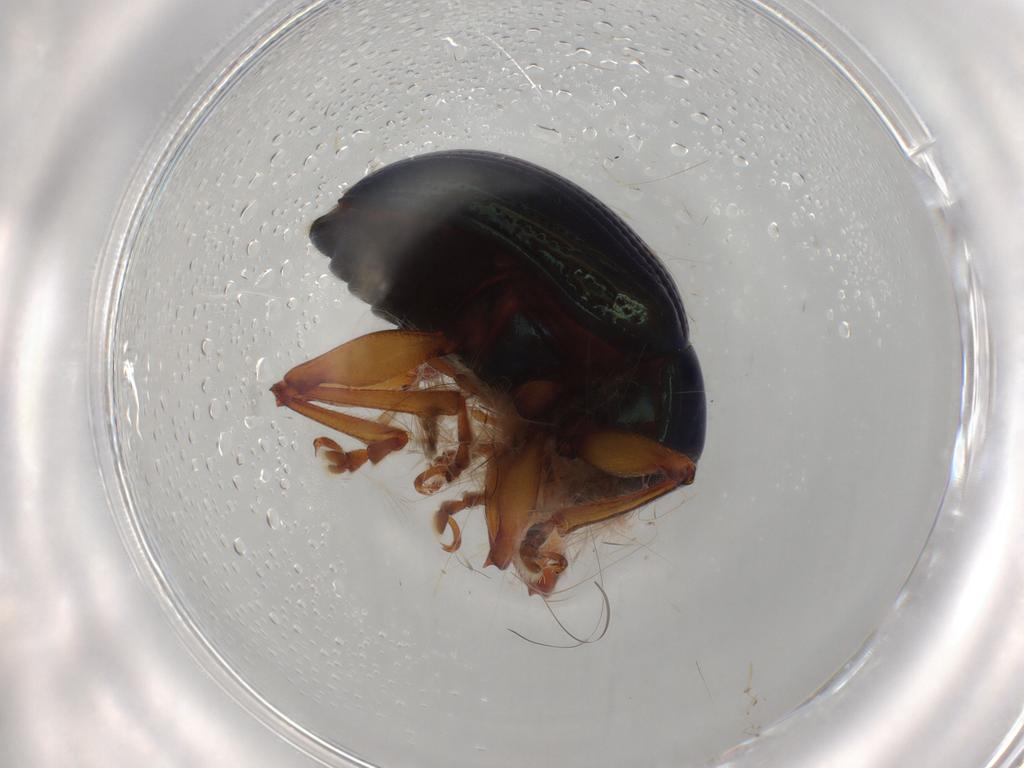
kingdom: Animalia
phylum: Arthropoda
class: Insecta
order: Coleoptera
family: Chrysomelidae
